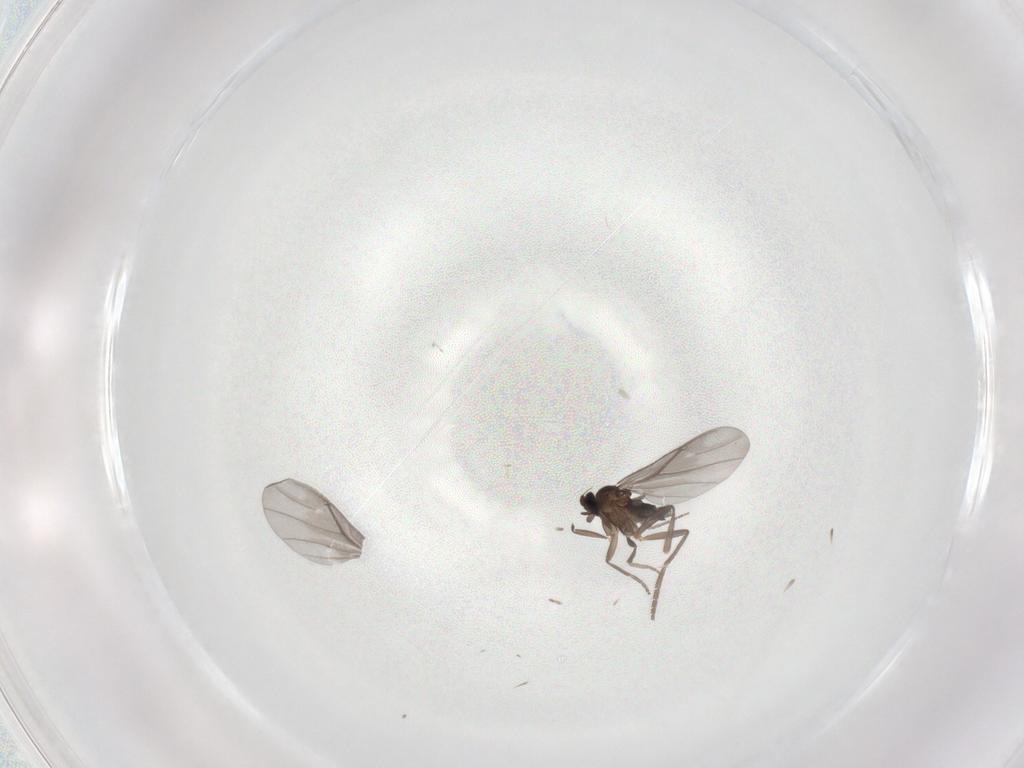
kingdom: Animalia
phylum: Arthropoda
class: Insecta
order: Diptera
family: Phoridae
